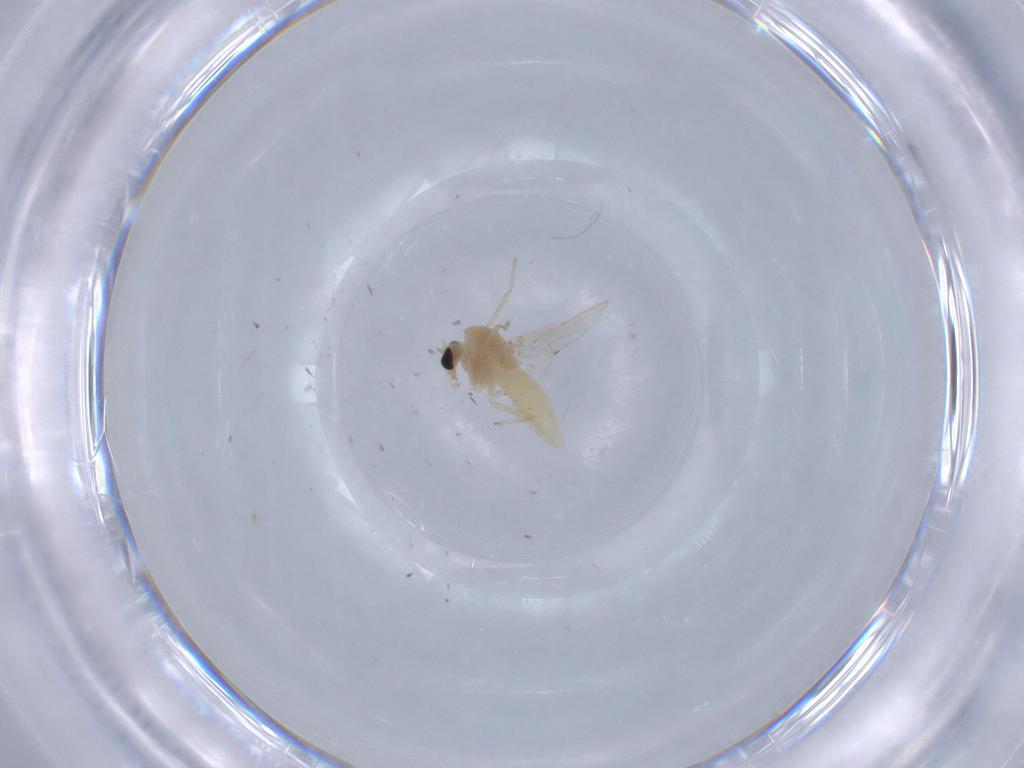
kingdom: Animalia
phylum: Arthropoda
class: Insecta
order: Diptera
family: Chironomidae
